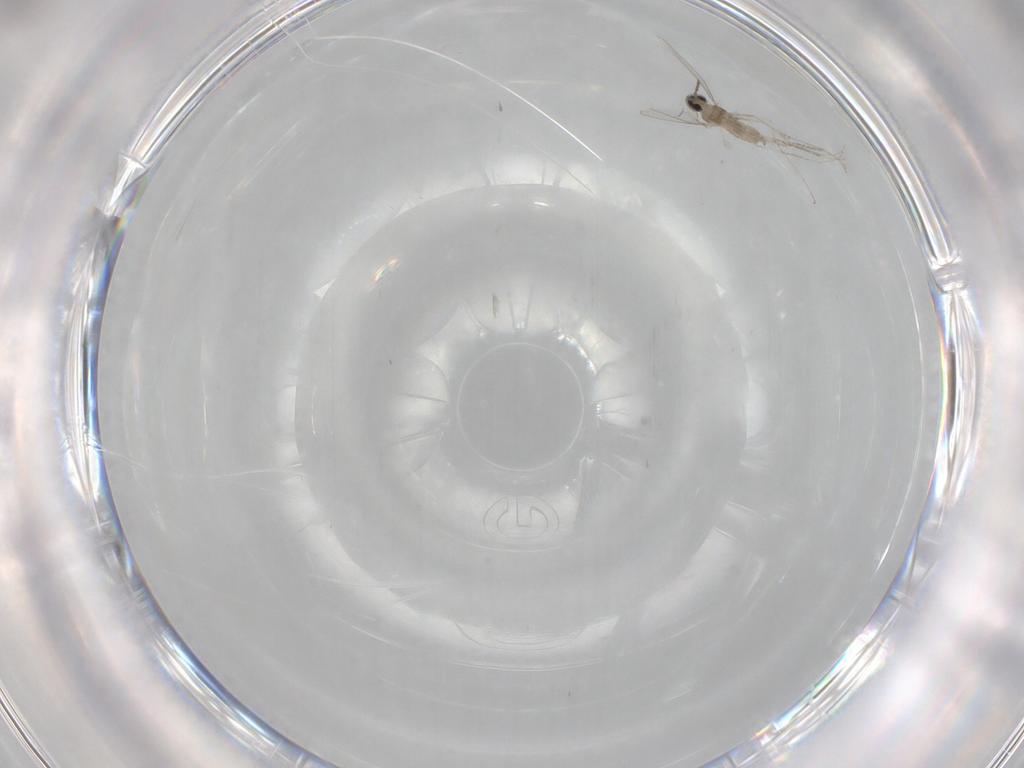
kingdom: Animalia
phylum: Arthropoda
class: Insecta
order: Diptera
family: Cecidomyiidae
